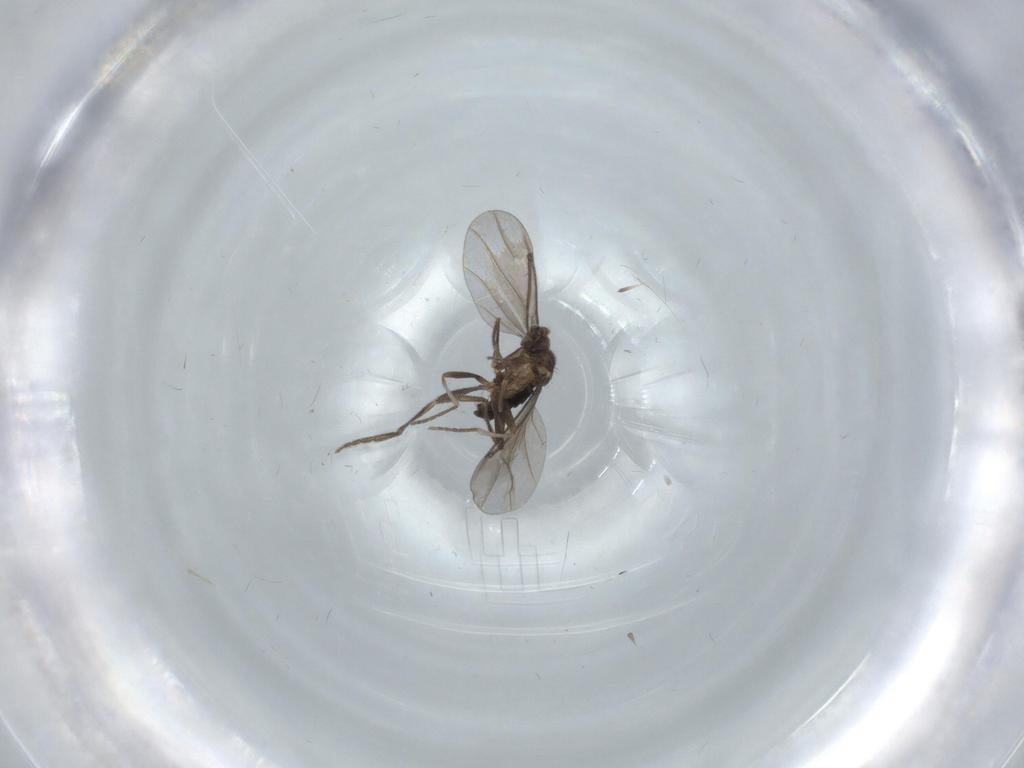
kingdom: Animalia
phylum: Arthropoda
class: Insecta
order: Diptera
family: Phoridae
